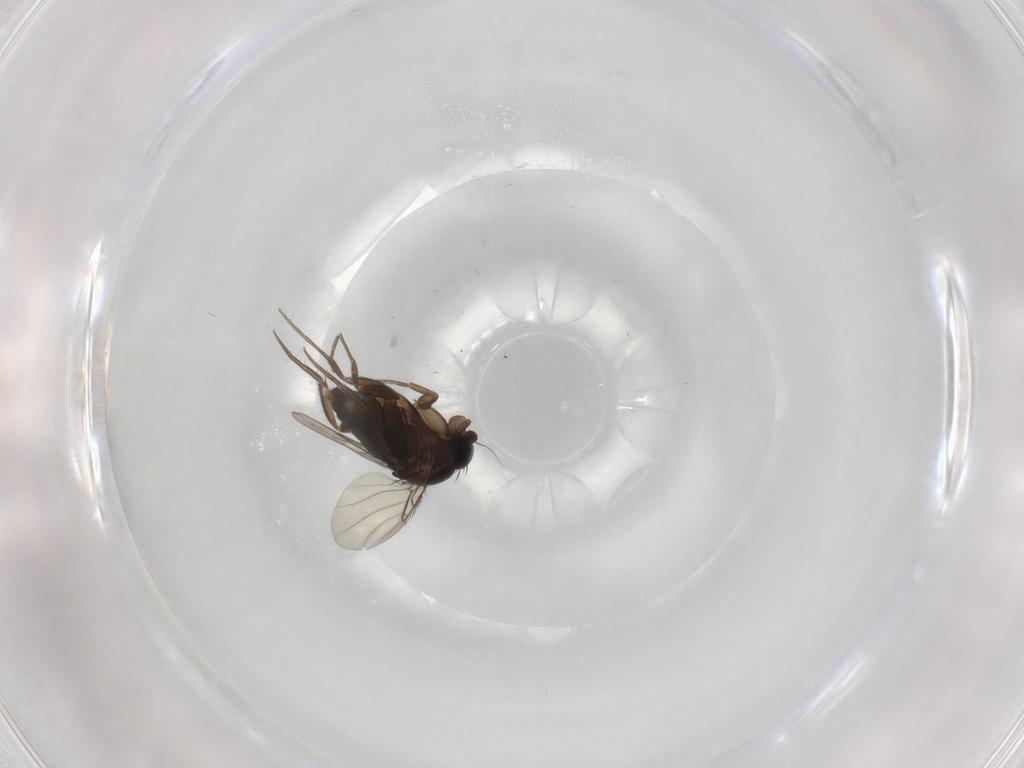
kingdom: Animalia
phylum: Arthropoda
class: Insecta
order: Diptera
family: Phoridae
